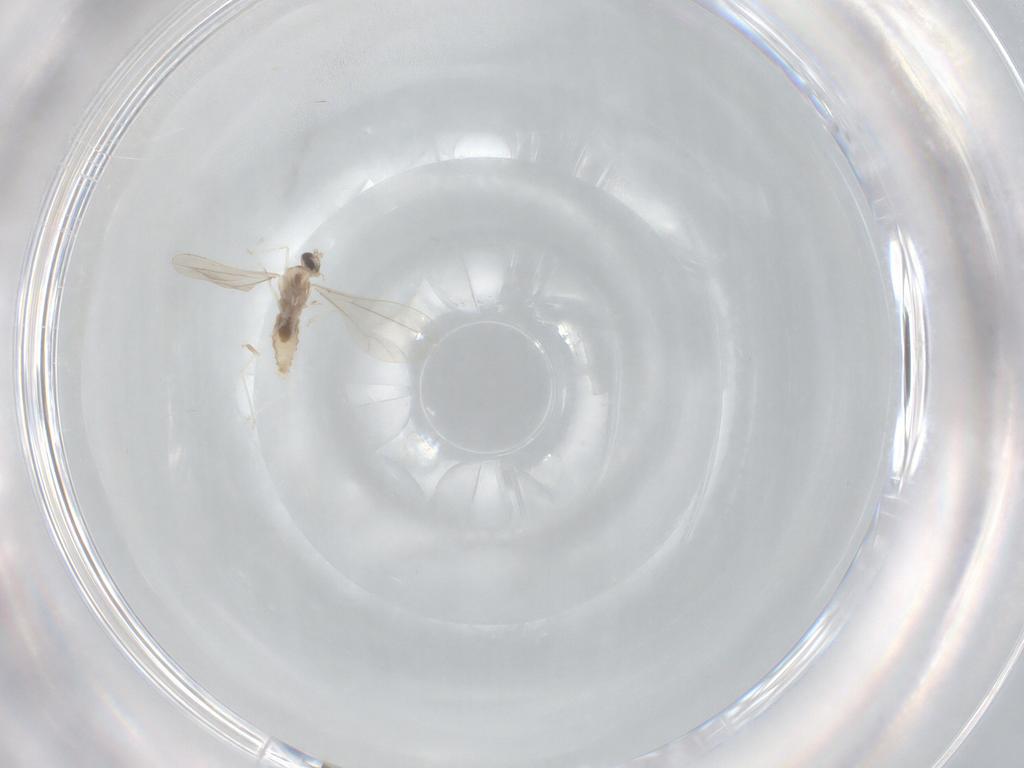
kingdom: Animalia
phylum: Arthropoda
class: Insecta
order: Diptera
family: Cecidomyiidae
